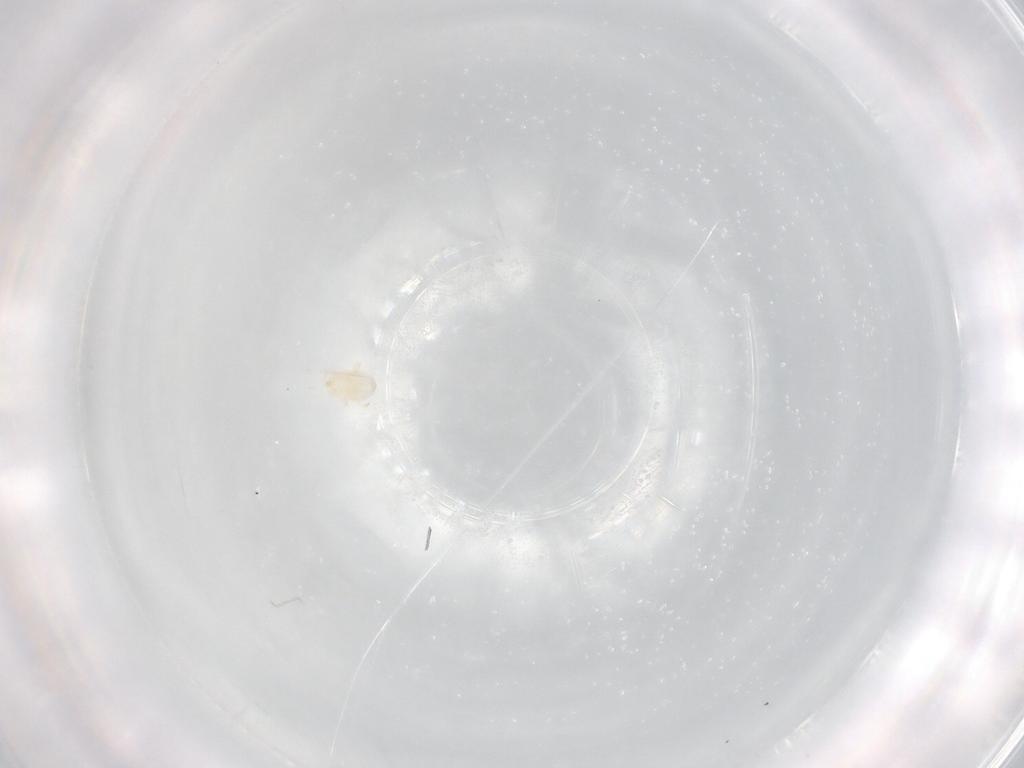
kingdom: Animalia
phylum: Arthropoda
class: Arachnida
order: Mesostigmata
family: Pachylaelapidae
